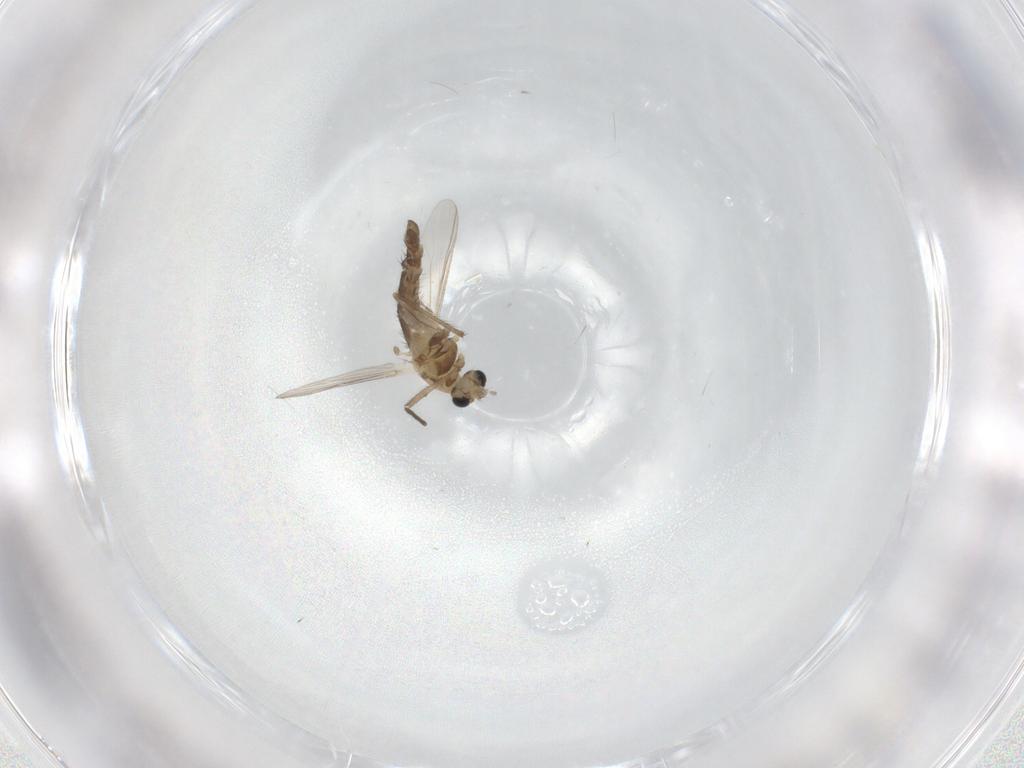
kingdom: Animalia
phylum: Arthropoda
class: Insecta
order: Diptera
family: Chironomidae
